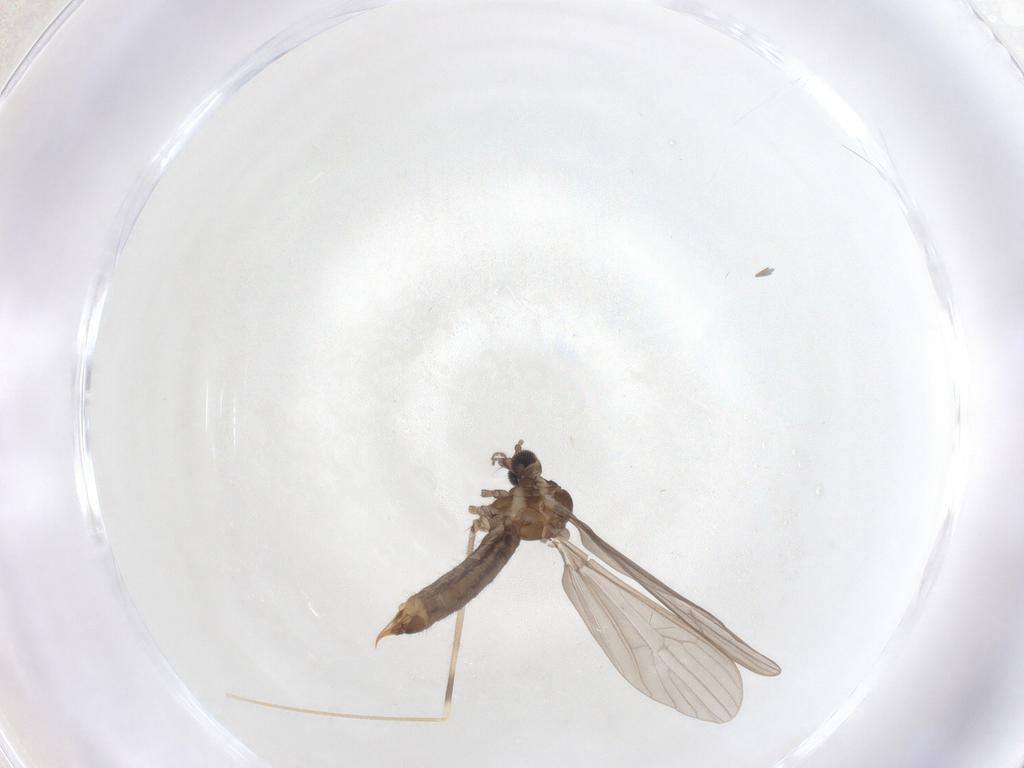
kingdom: Animalia
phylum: Arthropoda
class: Insecta
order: Diptera
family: Limoniidae
